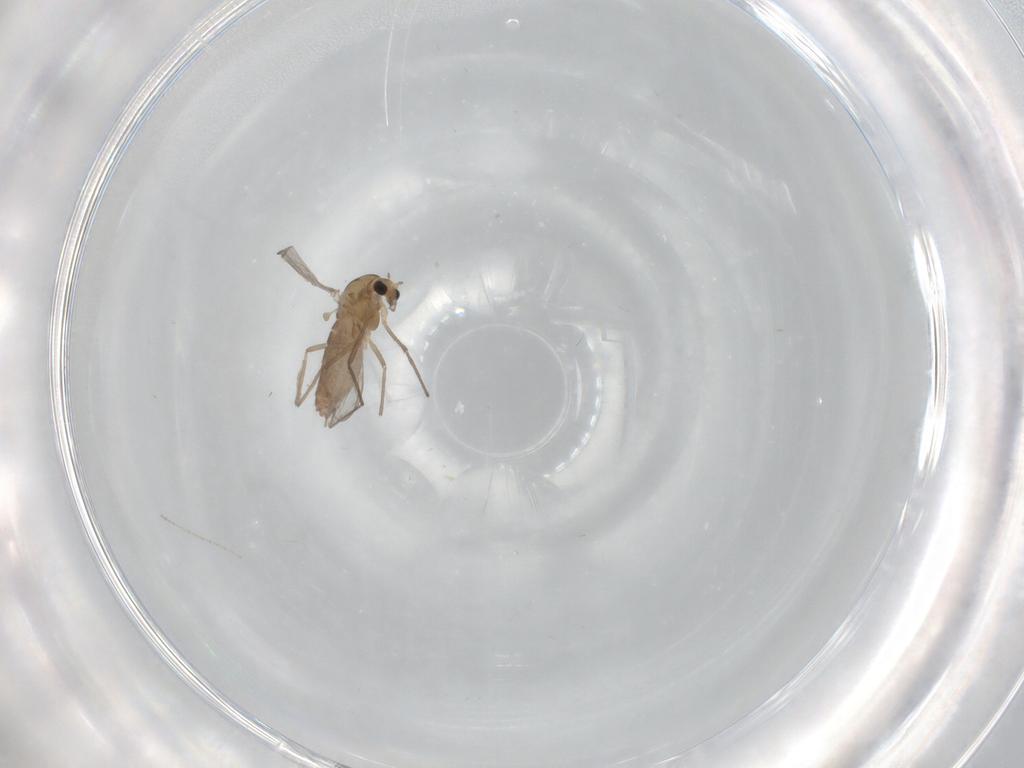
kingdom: Animalia
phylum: Arthropoda
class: Insecta
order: Diptera
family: Chironomidae
